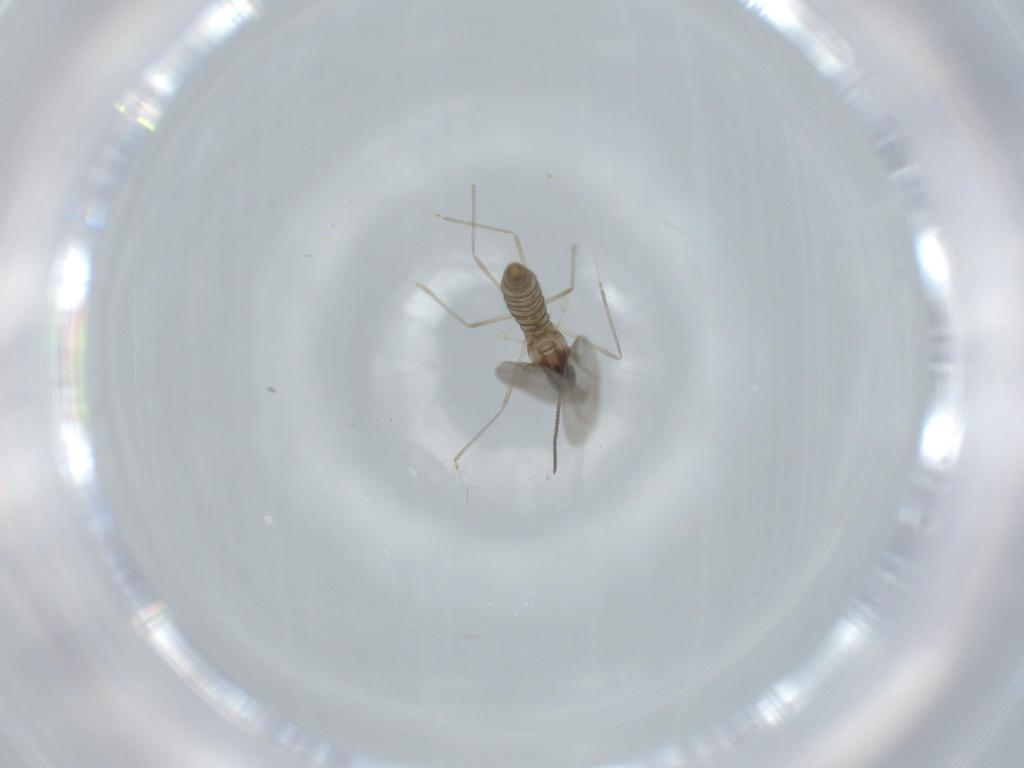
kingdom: Animalia
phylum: Arthropoda
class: Insecta
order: Diptera
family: Cecidomyiidae
